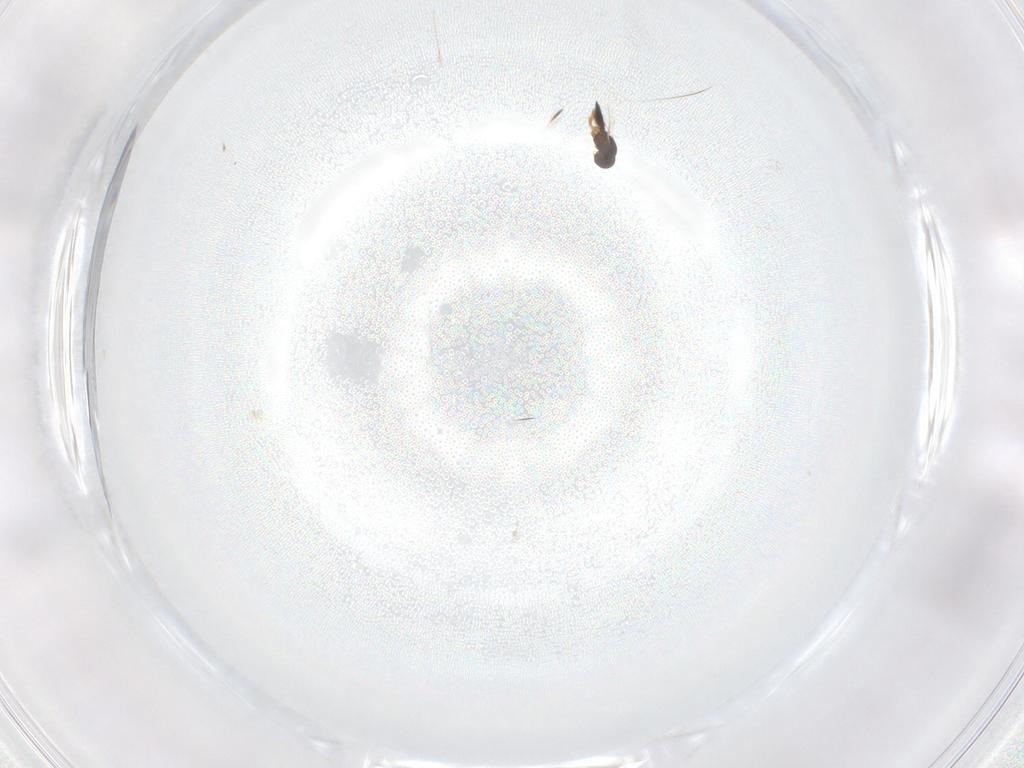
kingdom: Animalia
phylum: Arthropoda
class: Insecta
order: Hymenoptera
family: Scelionidae
